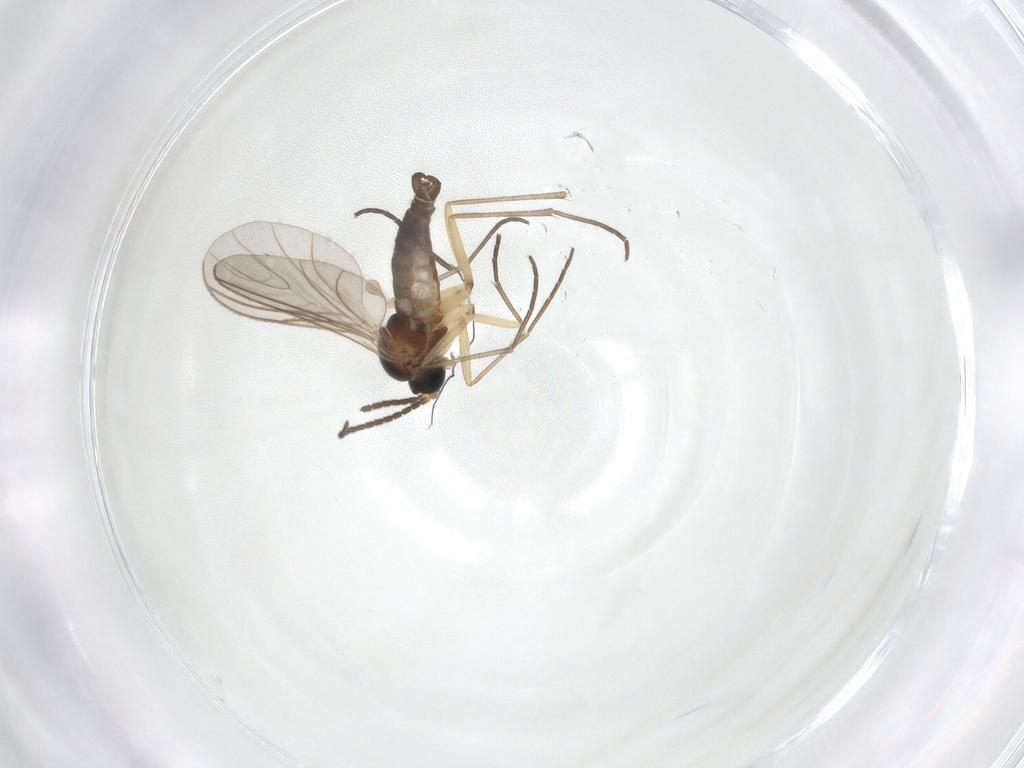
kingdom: Animalia
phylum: Arthropoda
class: Insecta
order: Diptera
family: Sciaridae
